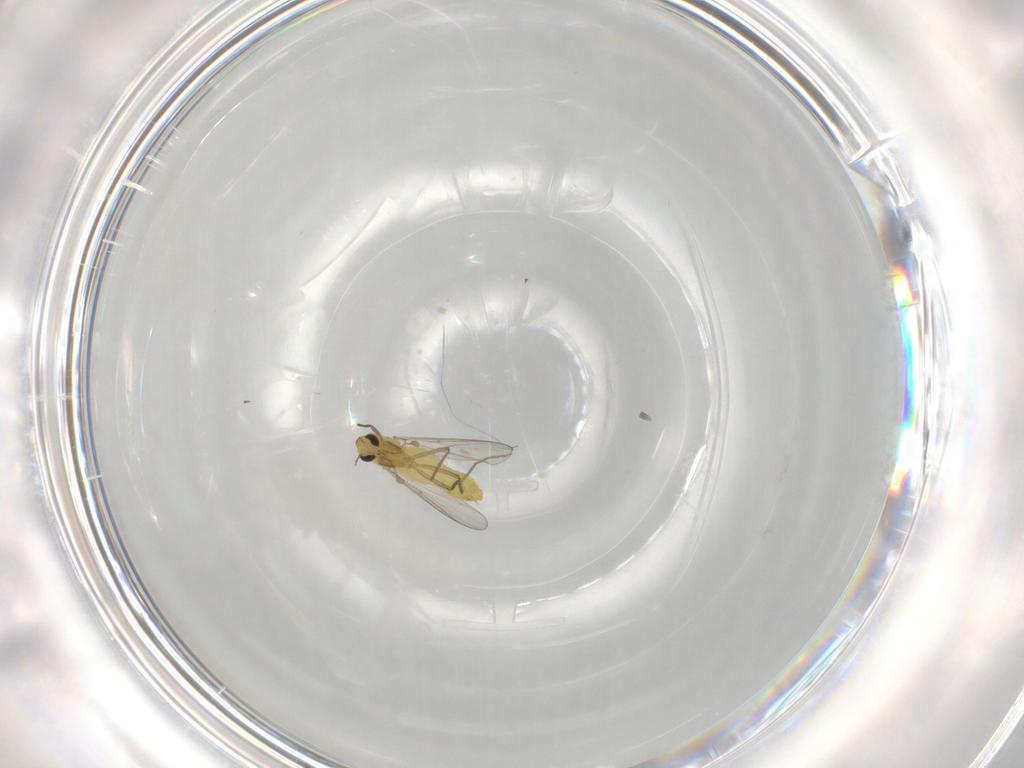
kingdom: Animalia
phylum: Arthropoda
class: Insecta
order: Diptera
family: Chironomidae
